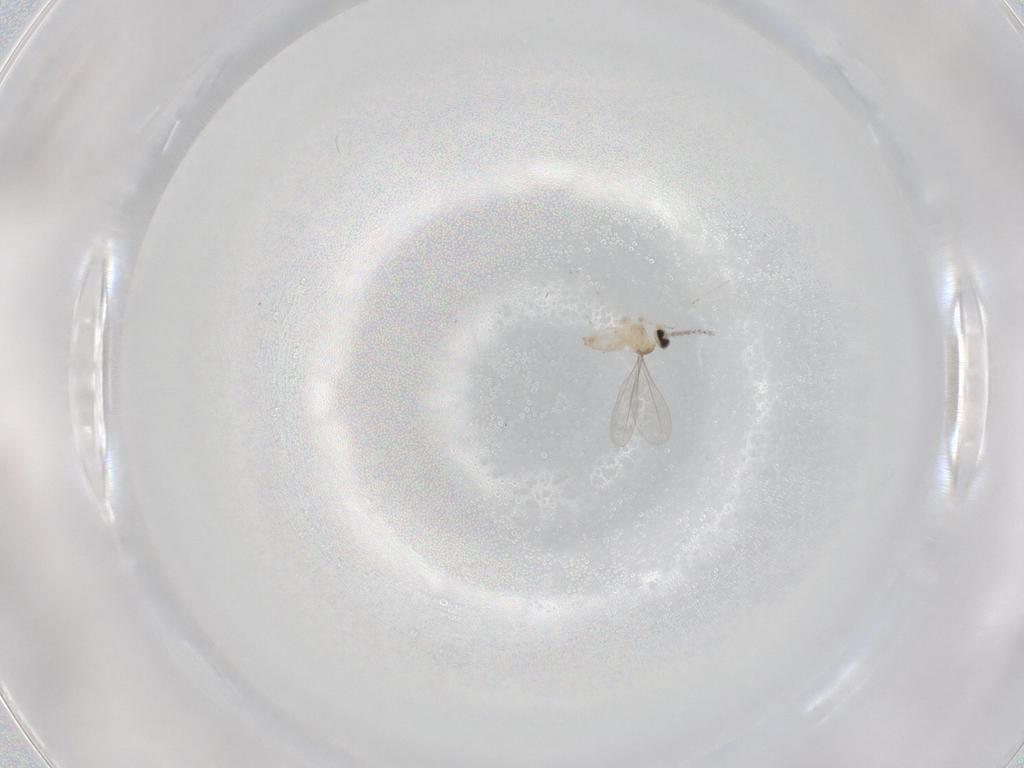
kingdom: Animalia
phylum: Arthropoda
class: Insecta
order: Diptera
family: Cecidomyiidae
